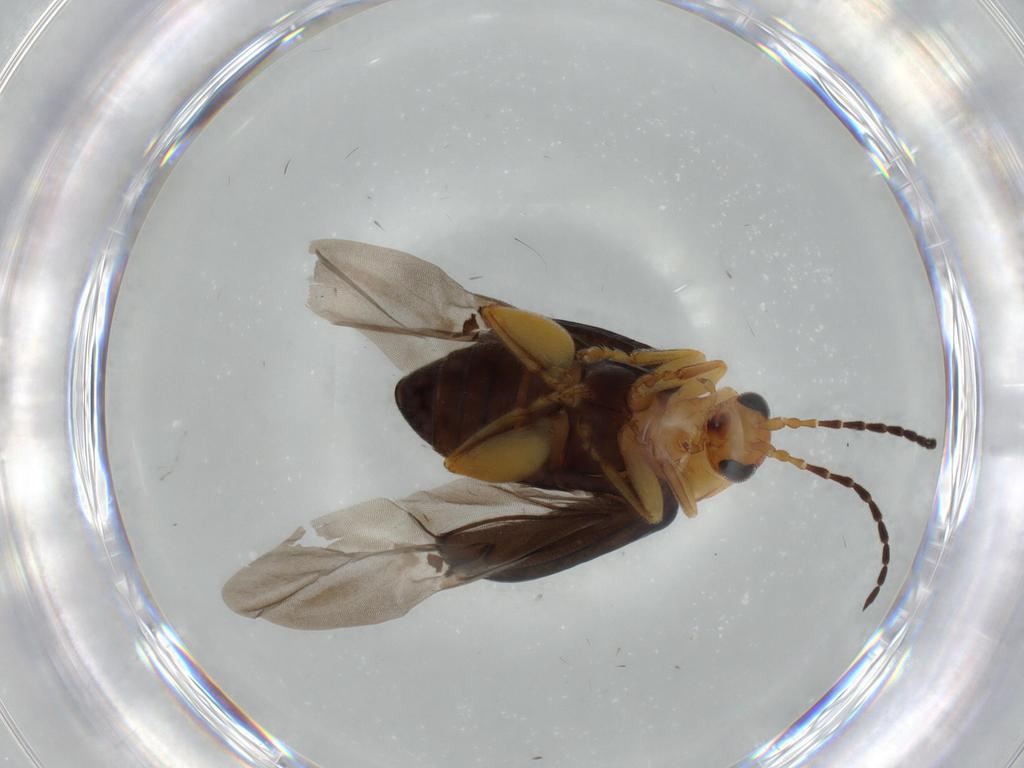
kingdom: Animalia
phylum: Arthropoda
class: Insecta
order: Coleoptera
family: Chrysomelidae
